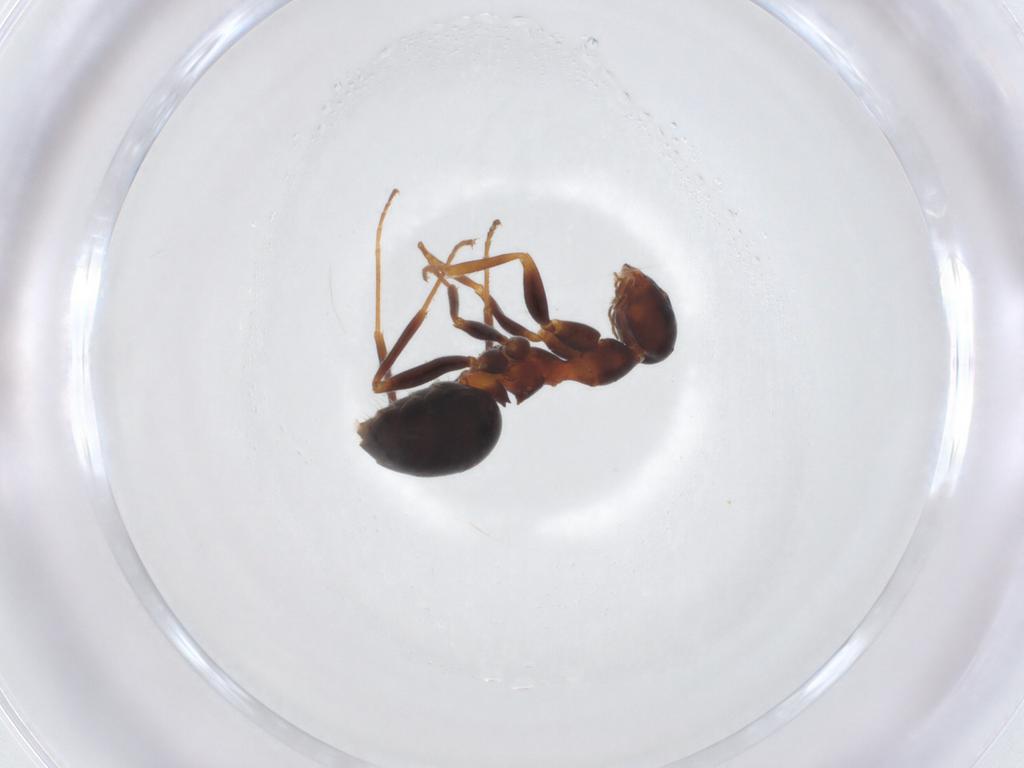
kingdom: Animalia
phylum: Arthropoda
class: Insecta
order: Hymenoptera
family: Formicidae
